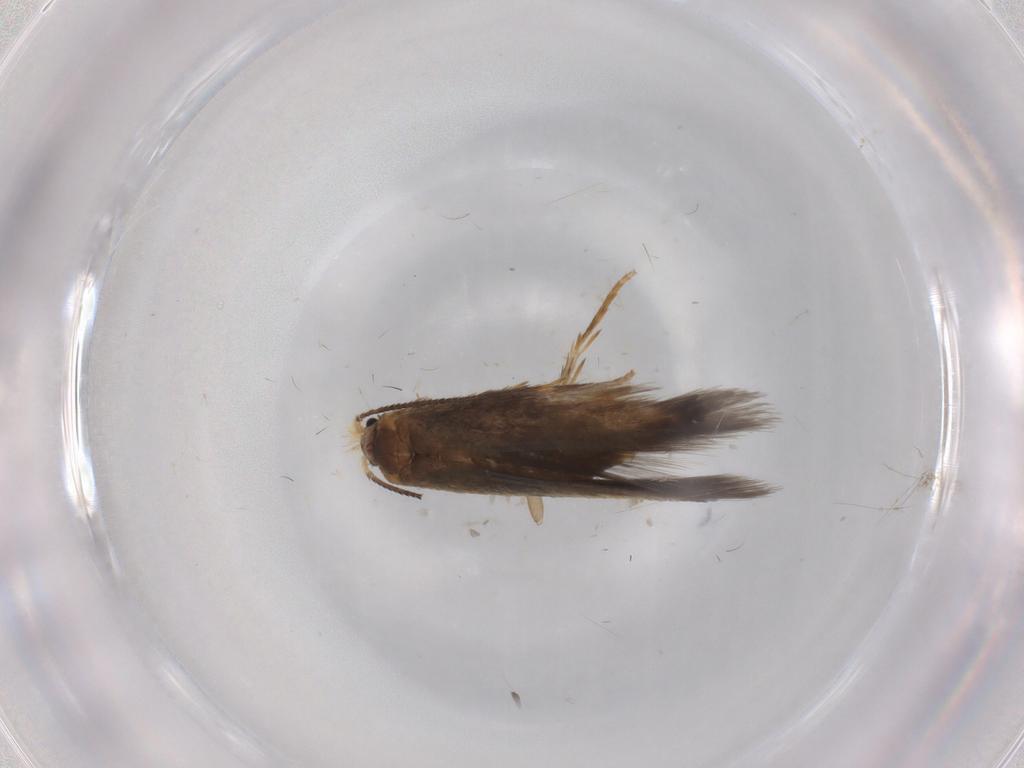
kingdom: Animalia
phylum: Arthropoda
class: Insecta
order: Lepidoptera
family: Nepticulidae
